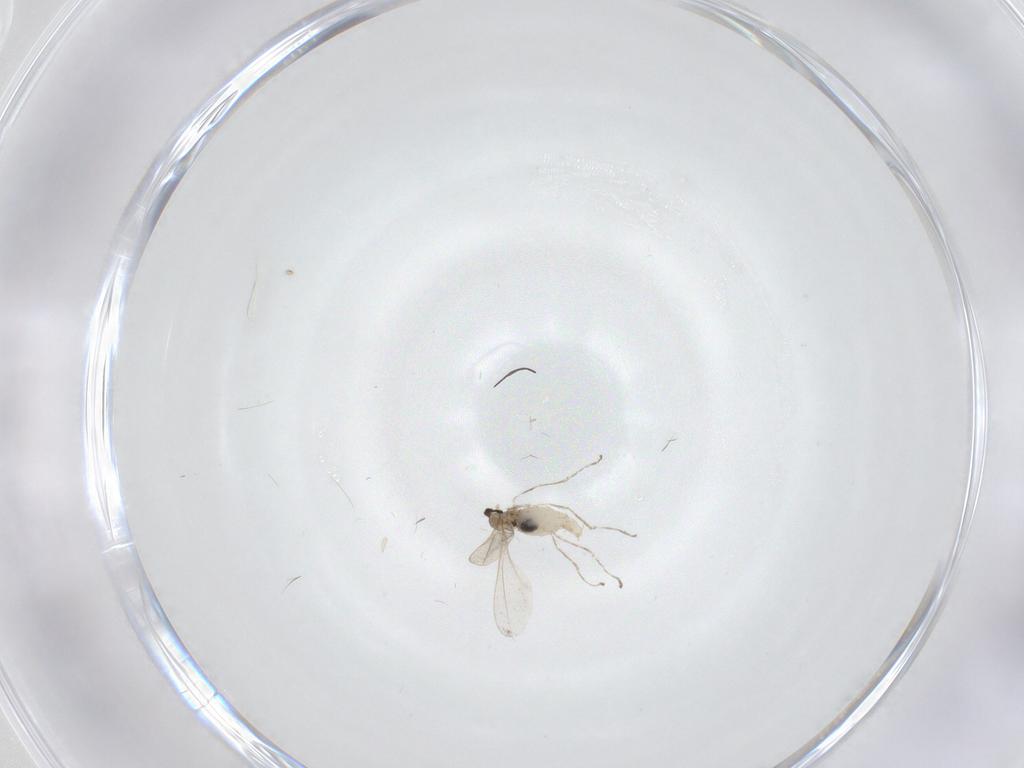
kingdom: Animalia
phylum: Arthropoda
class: Insecta
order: Diptera
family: Cecidomyiidae
